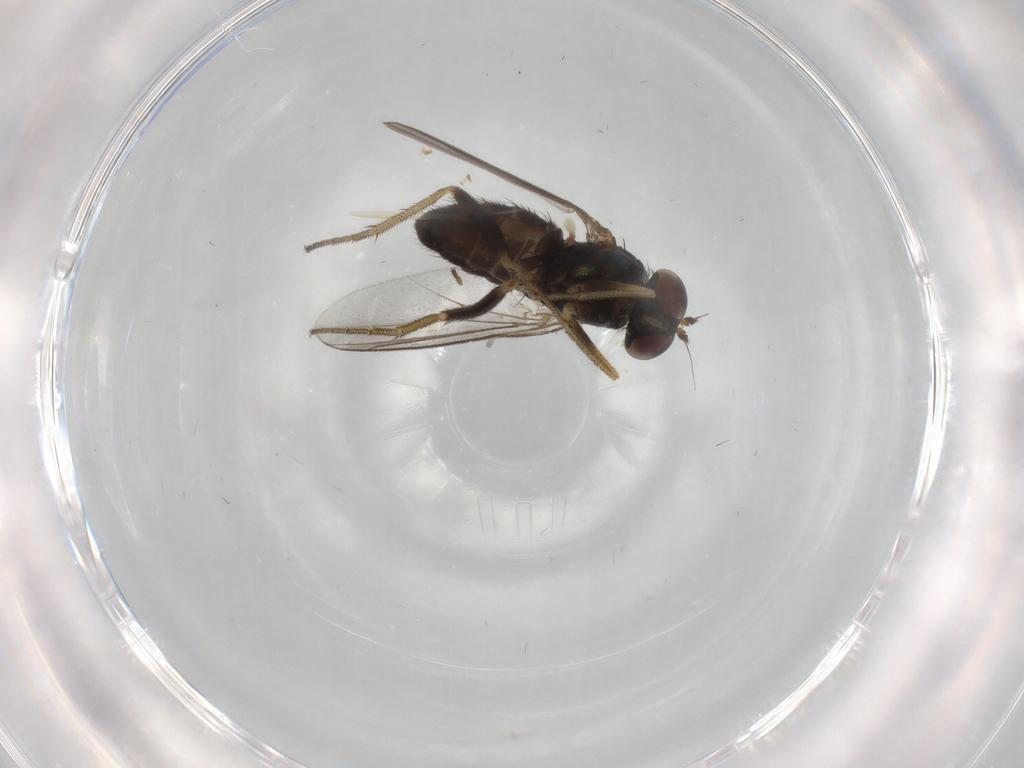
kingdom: Animalia
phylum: Arthropoda
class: Insecta
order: Diptera
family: Dolichopodidae
